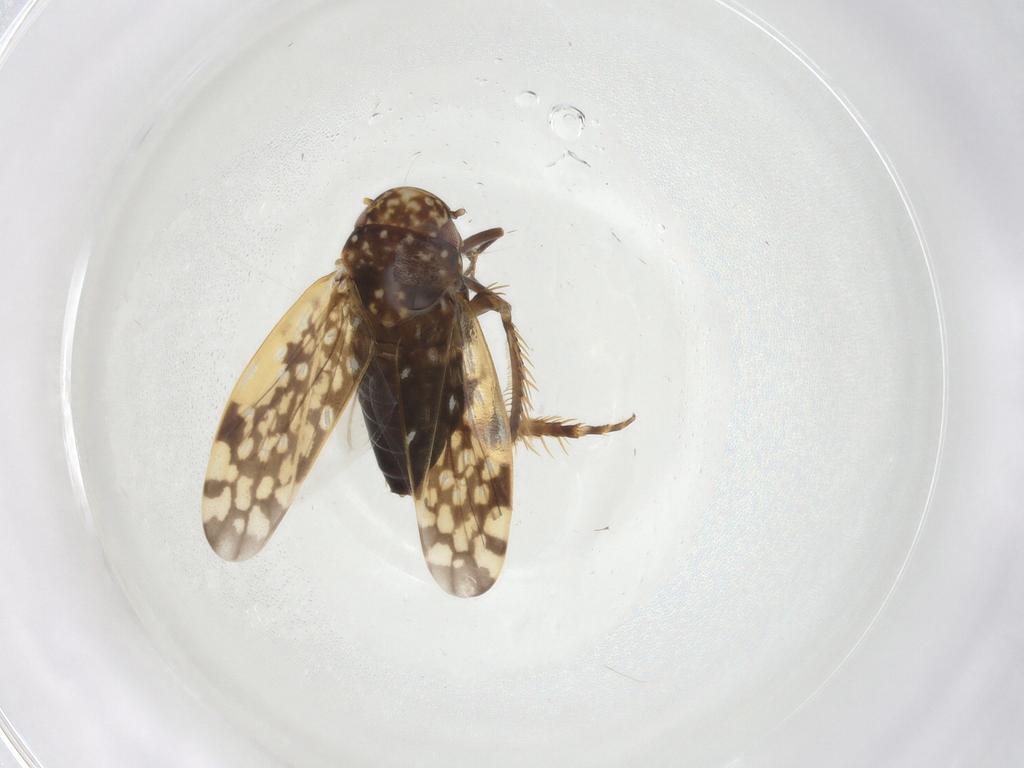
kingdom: Animalia
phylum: Arthropoda
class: Insecta
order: Hemiptera
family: Cicadellidae
